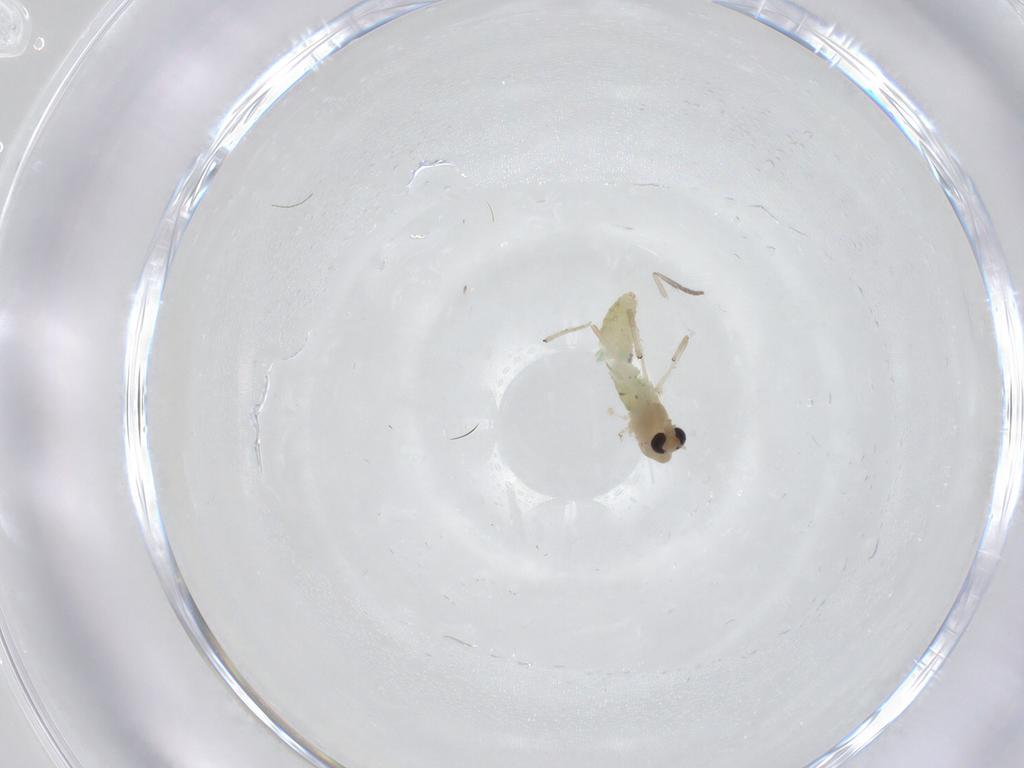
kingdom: Animalia
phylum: Arthropoda
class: Insecta
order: Diptera
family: Chironomidae
